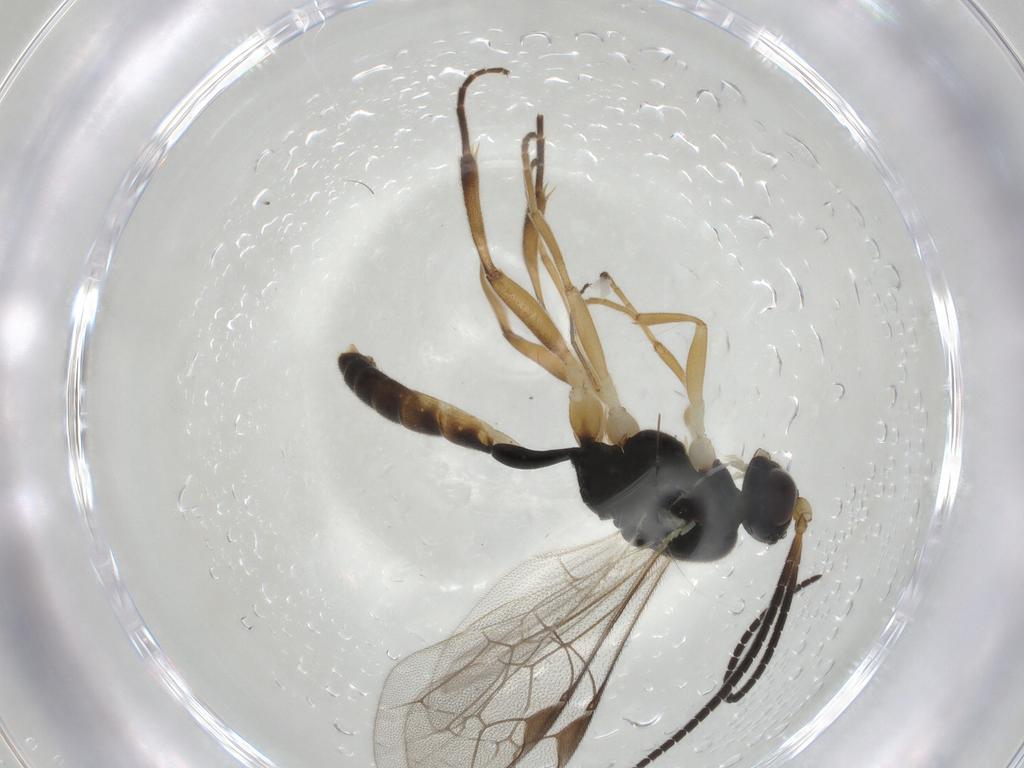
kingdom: Animalia
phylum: Arthropoda
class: Insecta
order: Hymenoptera
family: Ichneumonidae
